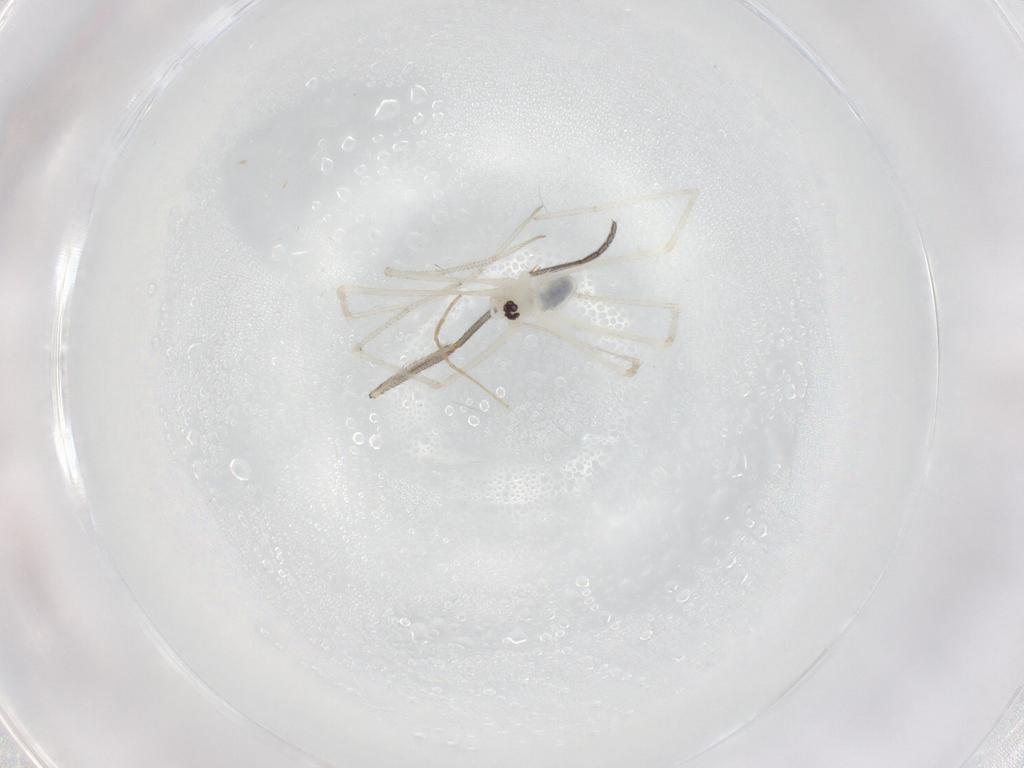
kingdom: Animalia
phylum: Arthropoda
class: Arachnida
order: Araneae
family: Pholcidae
